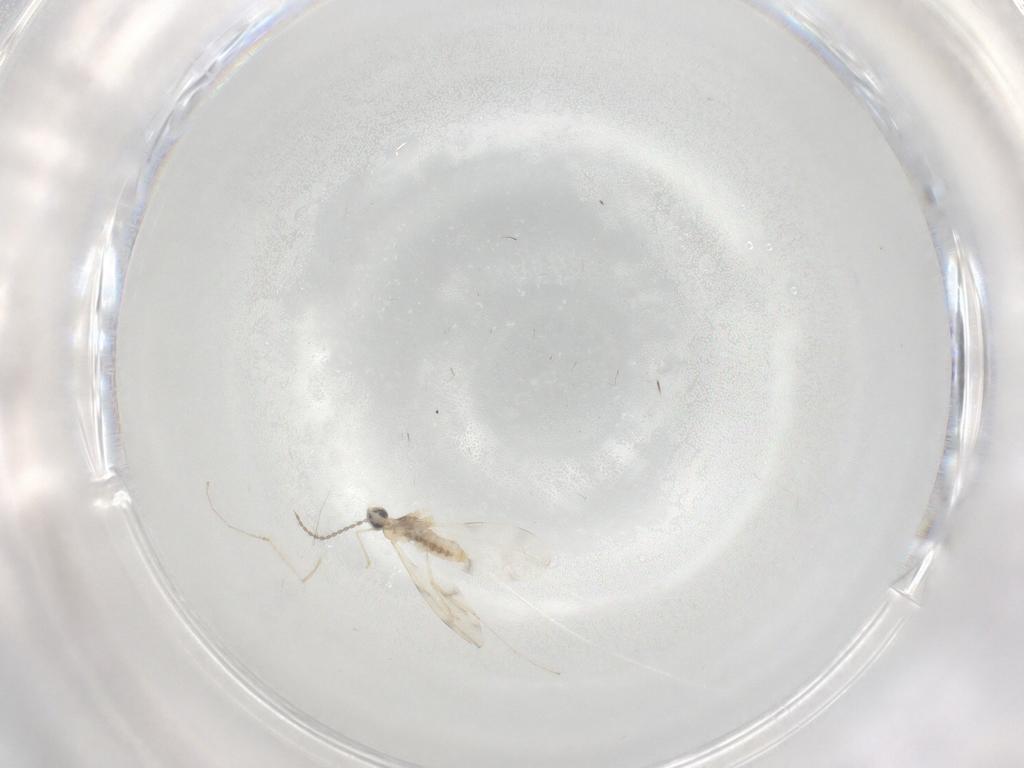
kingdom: Animalia
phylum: Arthropoda
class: Insecta
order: Diptera
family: Cecidomyiidae
